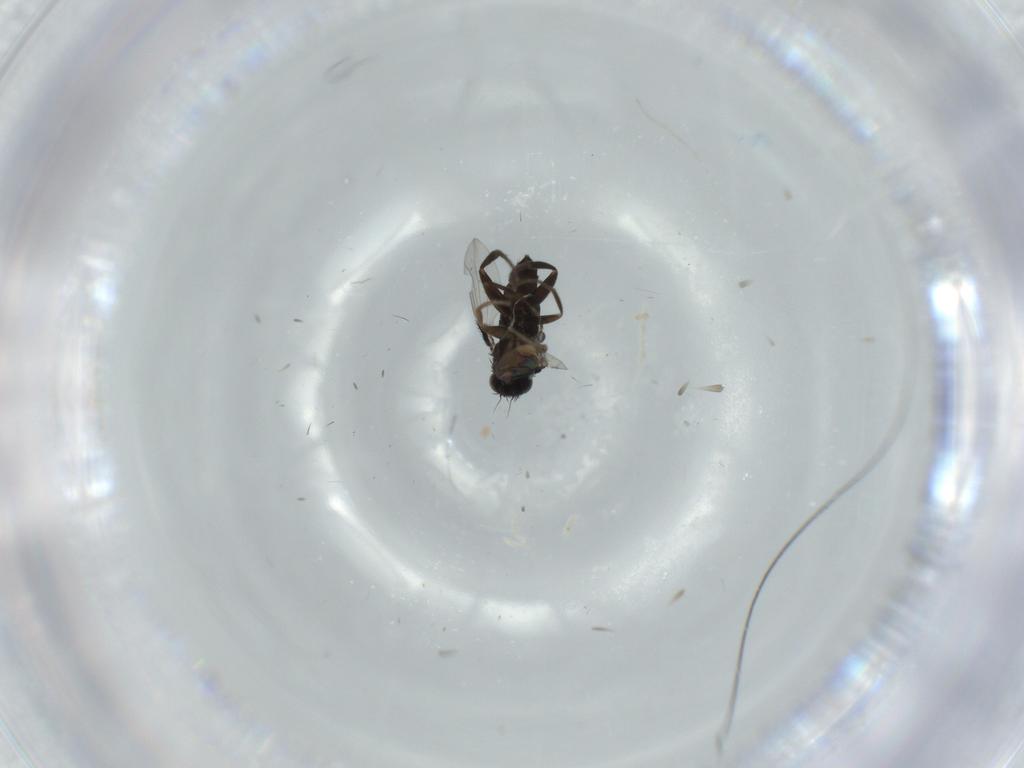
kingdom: Animalia
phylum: Arthropoda
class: Insecta
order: Diptera
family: Phoridae
